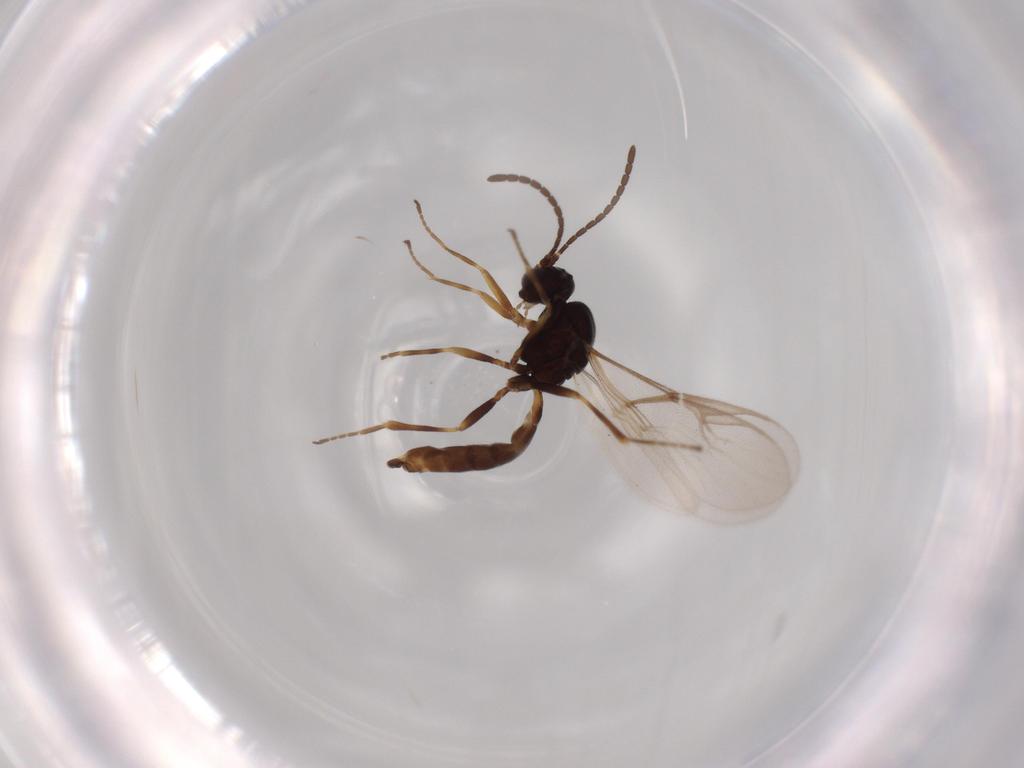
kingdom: Animalia
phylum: Arthropoda
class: Insecta
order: Hymenoptera
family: Braconidae
